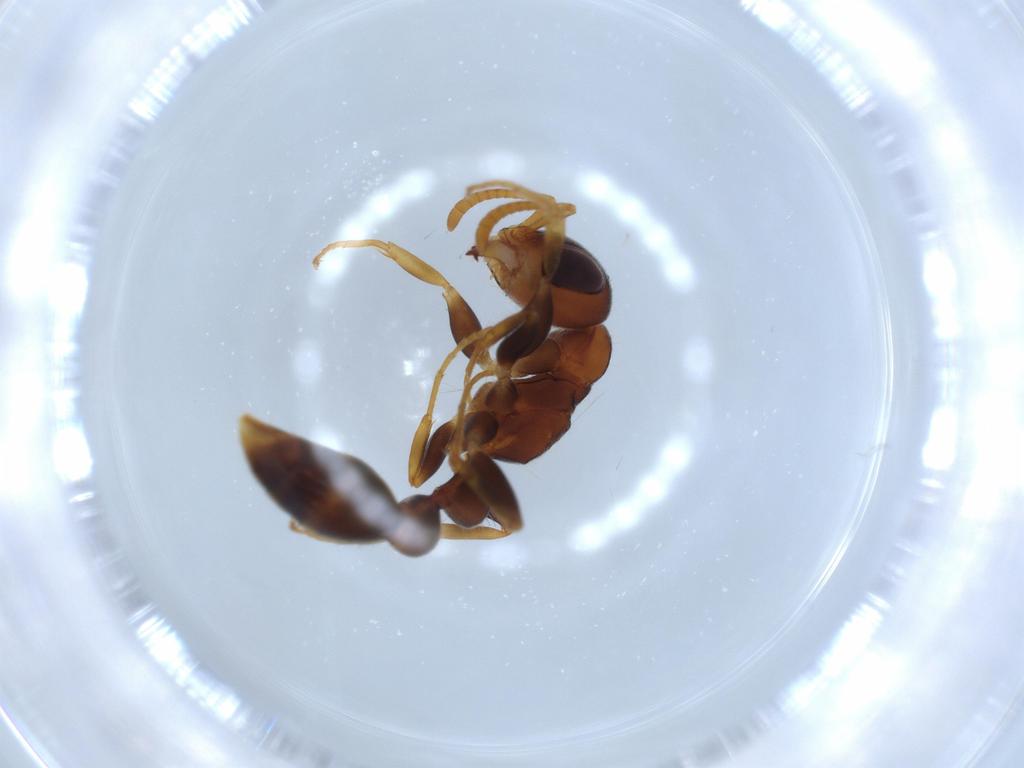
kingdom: Animalia
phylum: Arthropoda
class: Insecta
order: Hymenoptera
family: Formicidae
